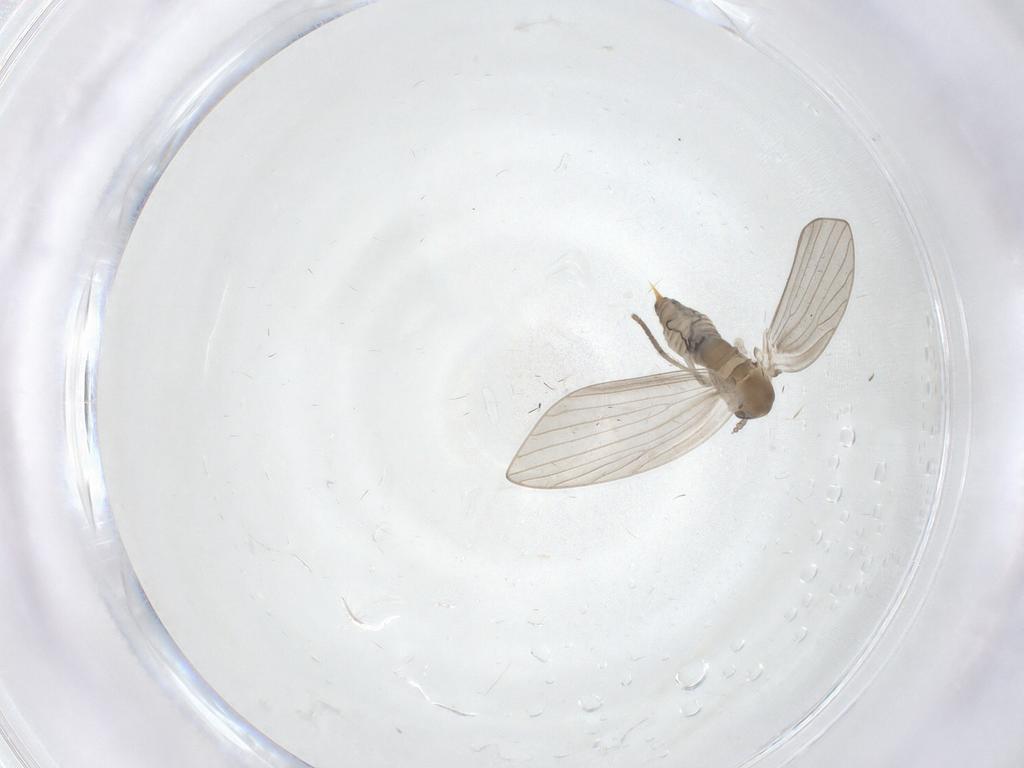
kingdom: Animalia
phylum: Arthropoda
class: Insecta
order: Diptera
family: Psychodidae
